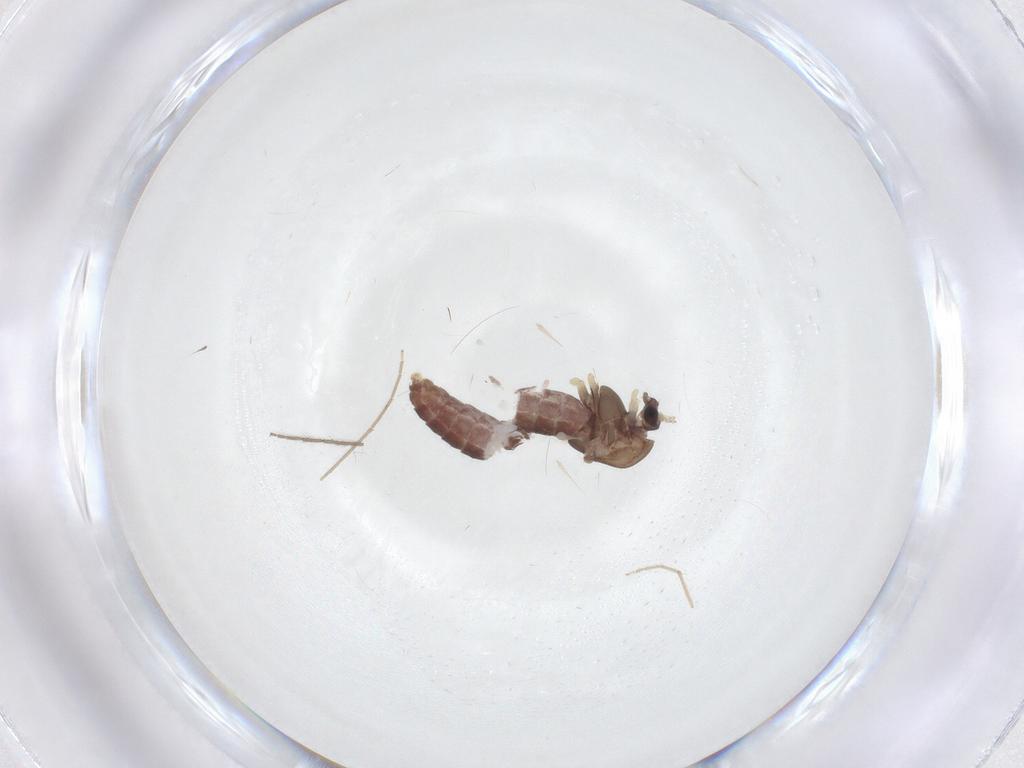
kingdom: Animalia
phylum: Arthropoda
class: Insecta
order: Diptera
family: Chironomidae
